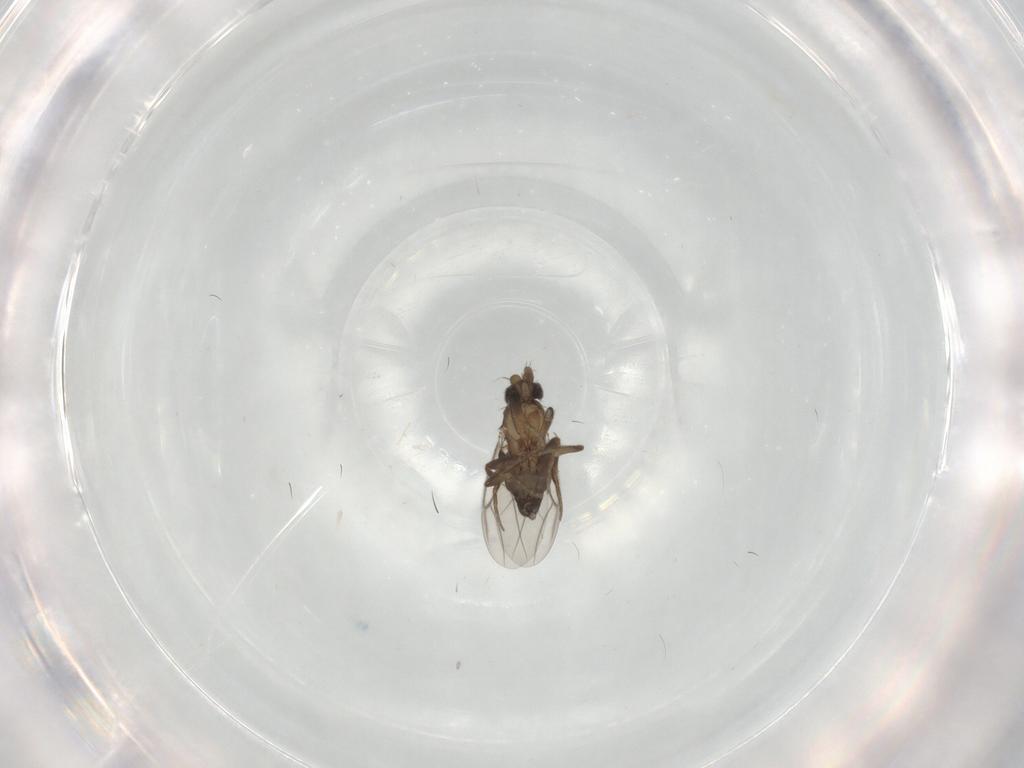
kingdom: Animalia
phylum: Arthropoda
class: Insecta
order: Diptera
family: Phoridae
